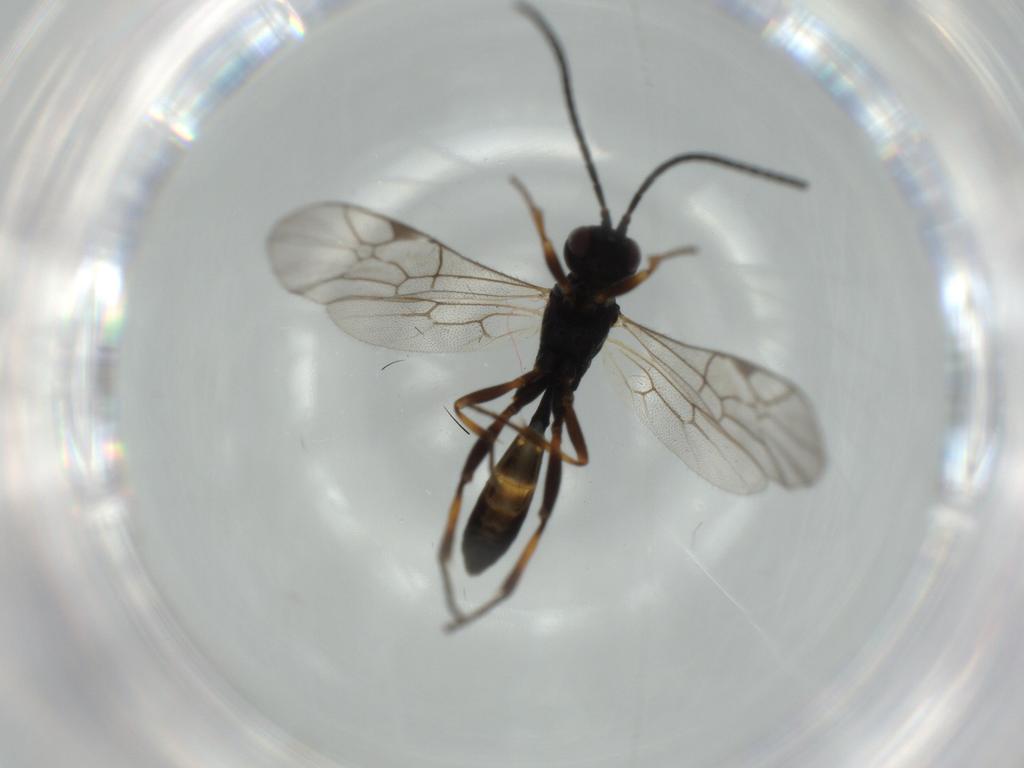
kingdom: Animalia
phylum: Arthropoda
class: Insecta
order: Hymenoptera
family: Ichneumonidae
